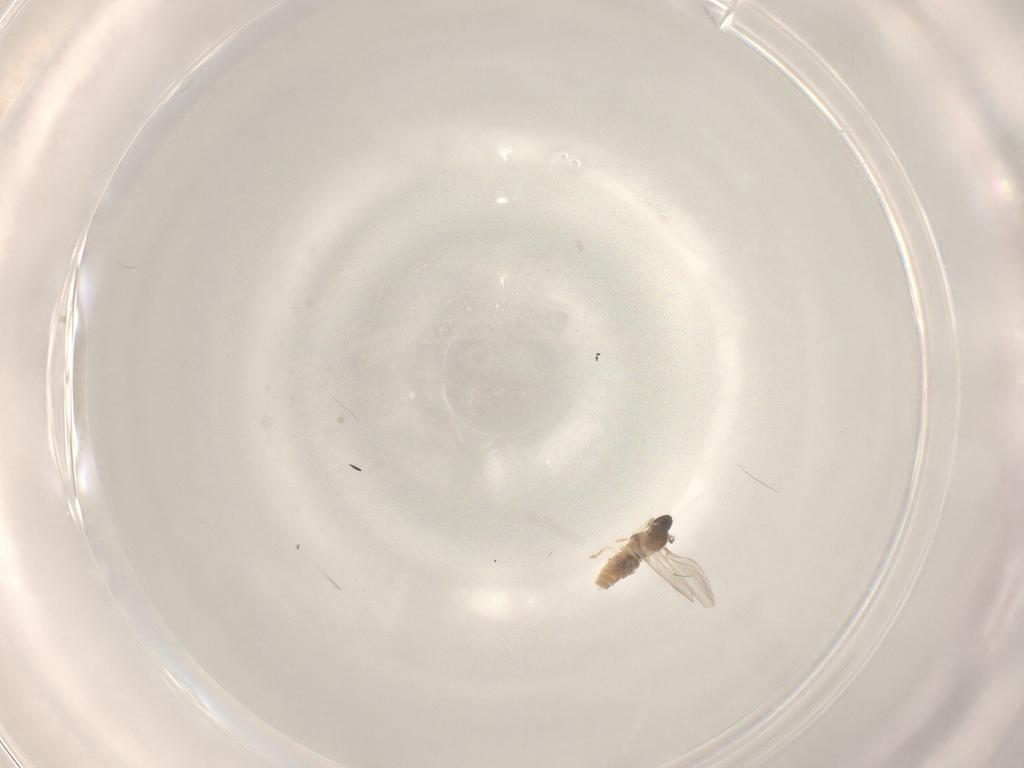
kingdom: Animalia
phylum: Arthropoda
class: Insecta
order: Diptera
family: Cecidomyiidae
